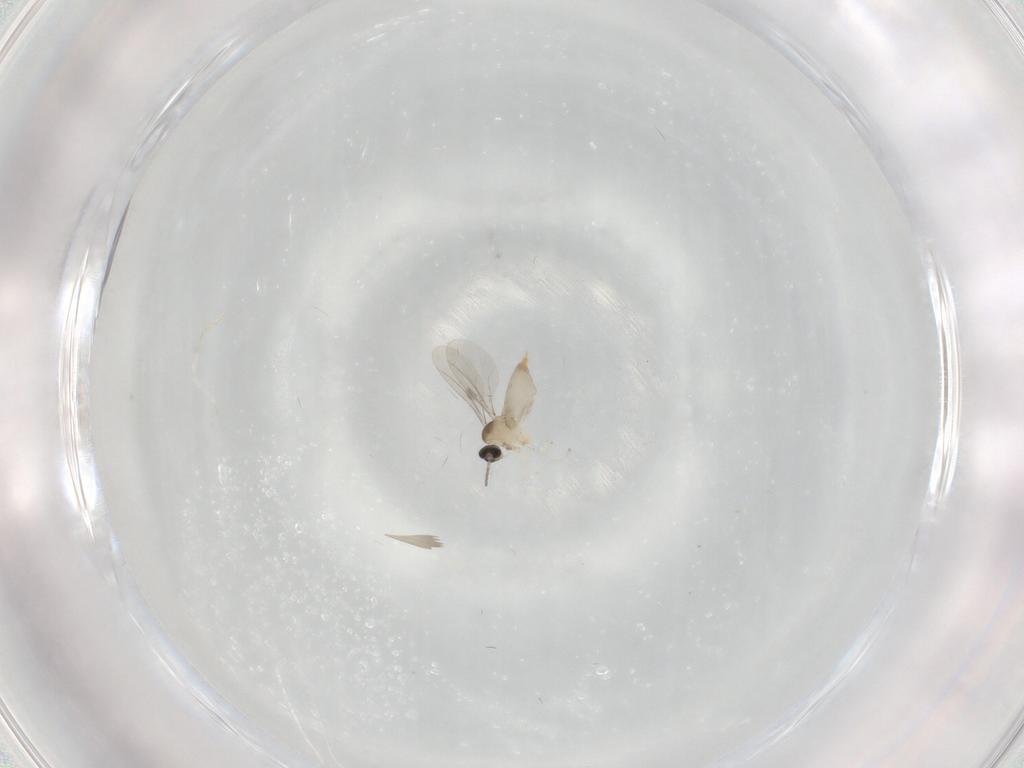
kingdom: Animalia
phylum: Arthropoda
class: Insecta
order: Diptera
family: Cecidomyiidae
